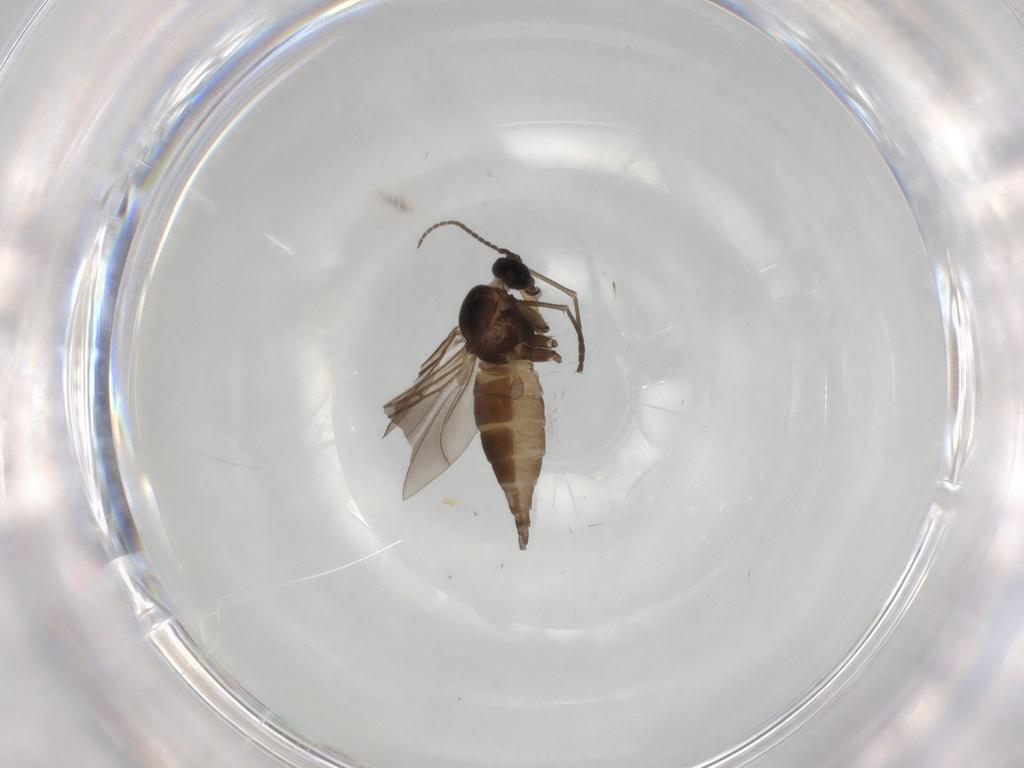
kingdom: Animalia
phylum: Arthropoda
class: Insecta
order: Diptera
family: Sciaridae
